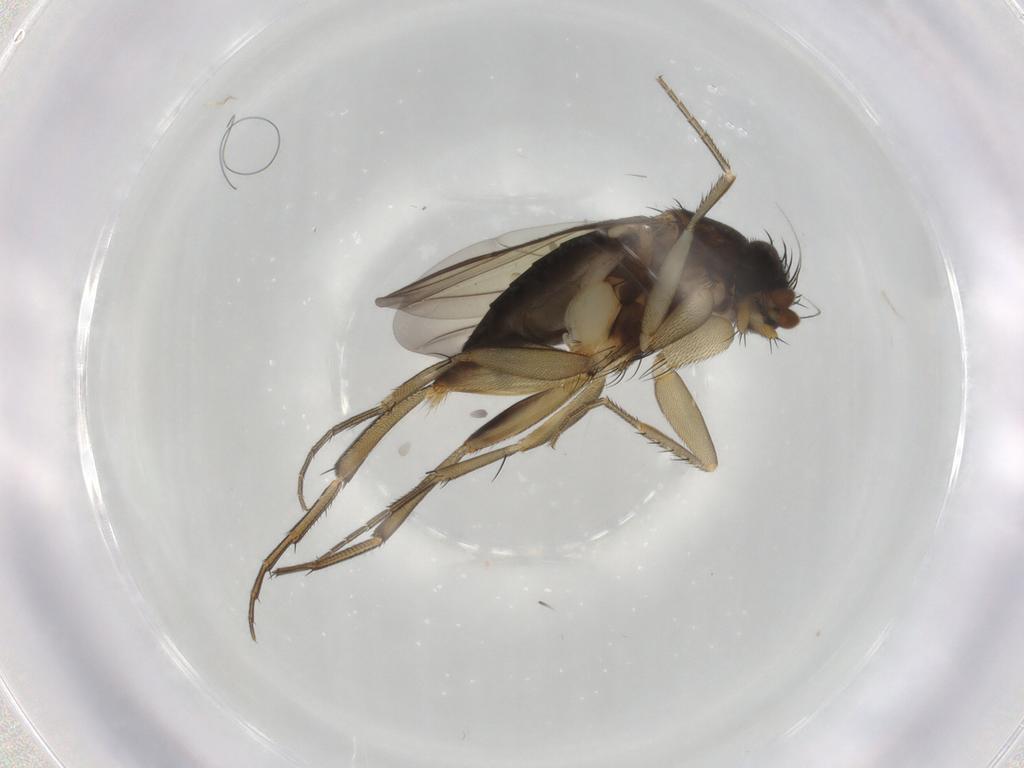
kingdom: Animalia
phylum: Arthropoda
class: Insecta
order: Diptera
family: Phoridae
